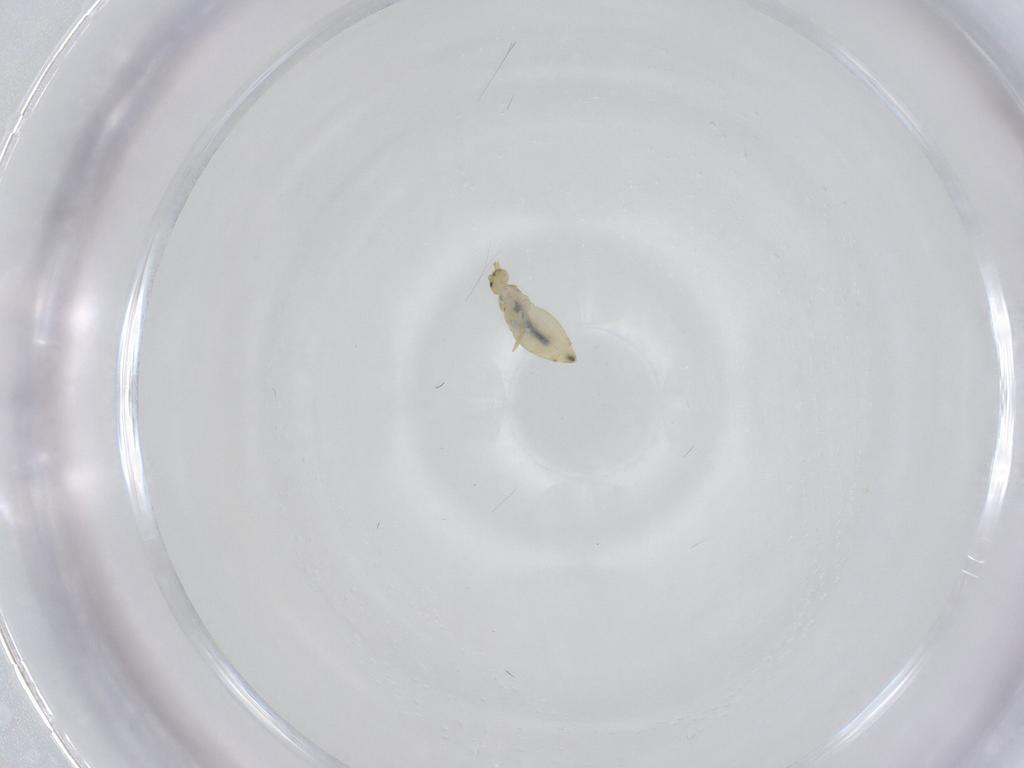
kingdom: Animalia
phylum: Arthropoda
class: Collembola
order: Entomobryomorpha
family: Entomobryidae
